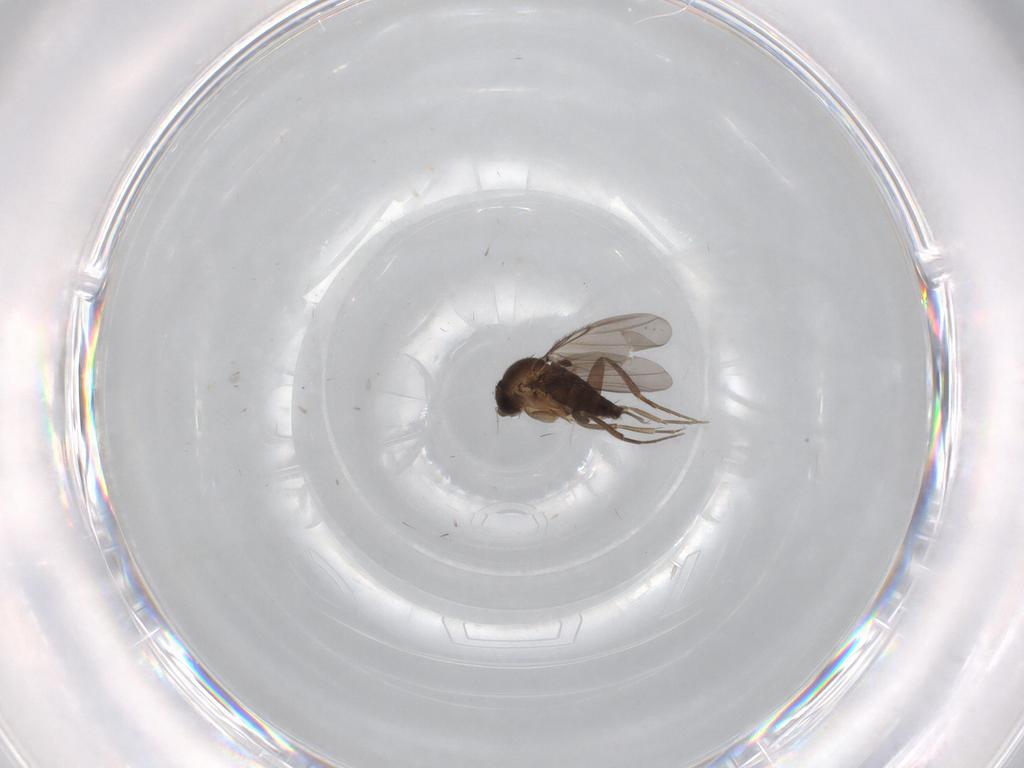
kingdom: Animalia
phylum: Arthropoda
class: Insecta
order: Diptera
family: Phoridae
